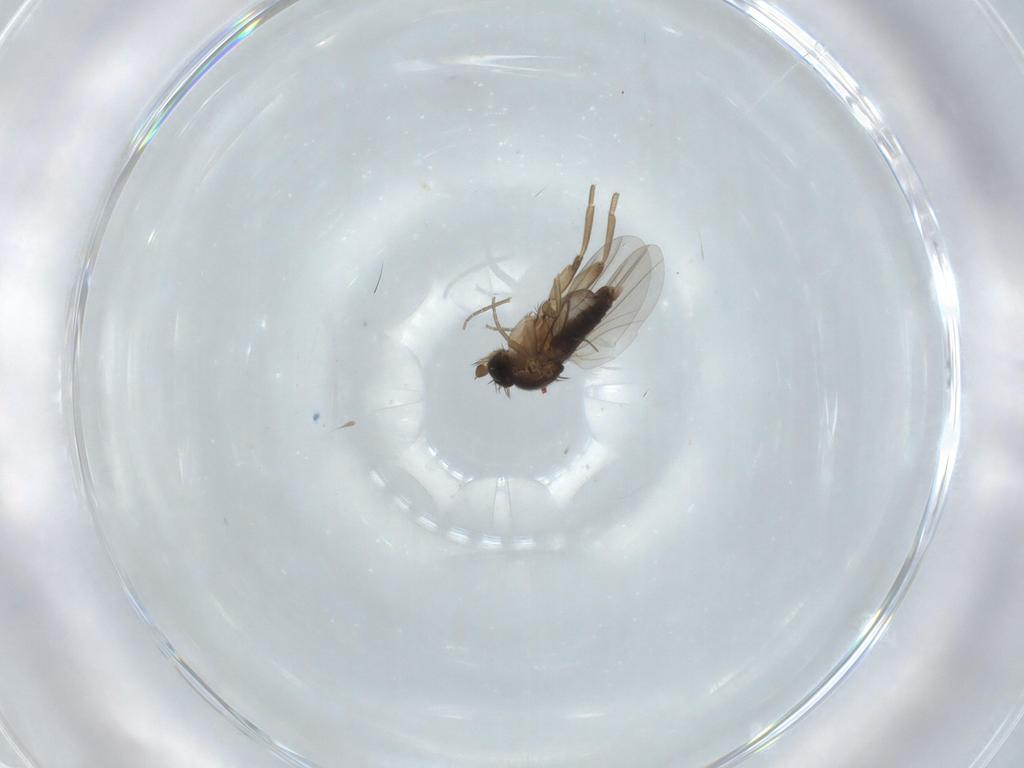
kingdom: Animalia
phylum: Arthropoda
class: Insecta
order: Diptera
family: Phoridae
